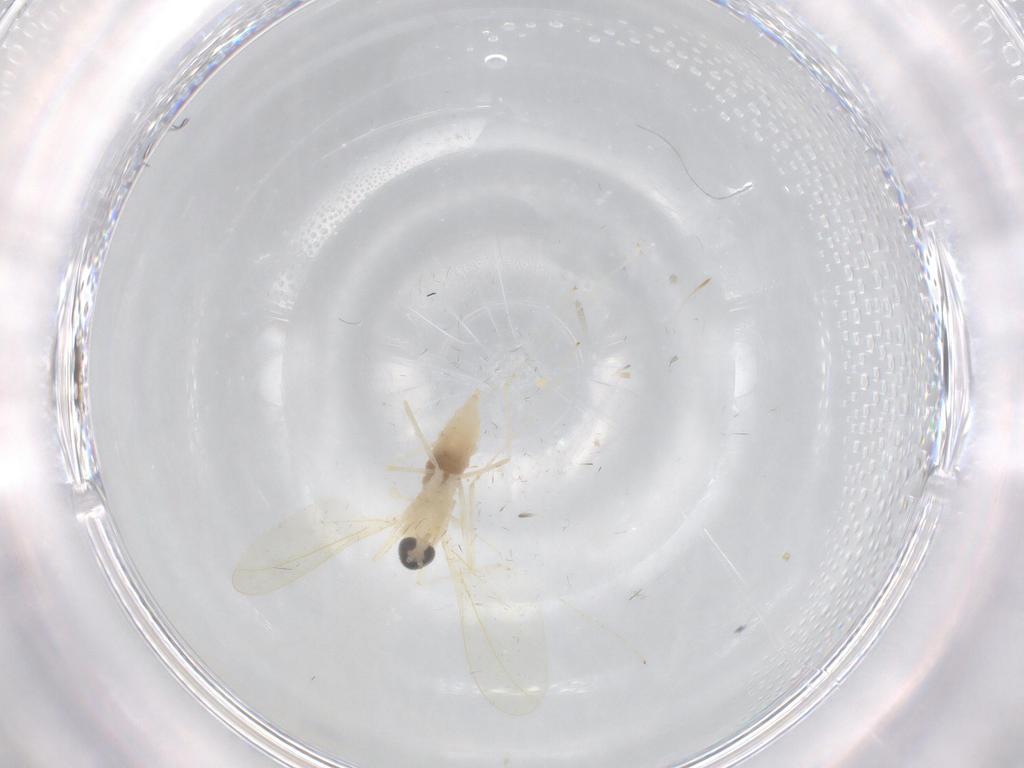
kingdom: Animalia
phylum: Arthropoda
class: Insecta
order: Diptera
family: Cecidomyiidae
